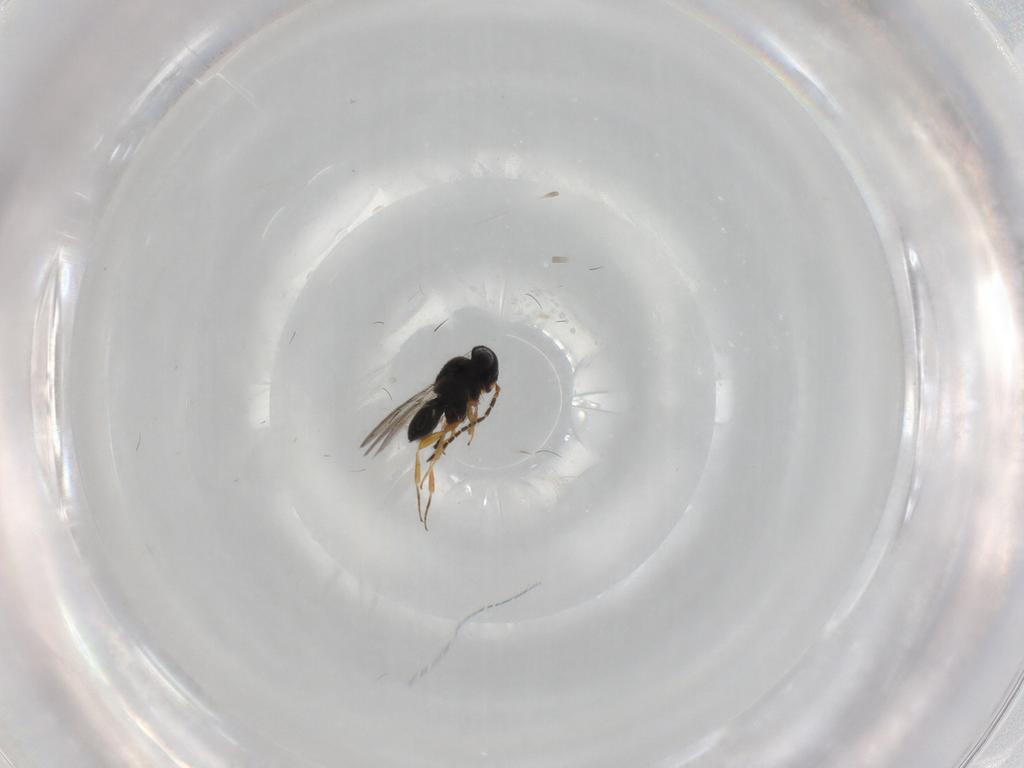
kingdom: Animalia
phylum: Arthropoda
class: Insecta
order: Hymenoptera
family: Scelionidae
